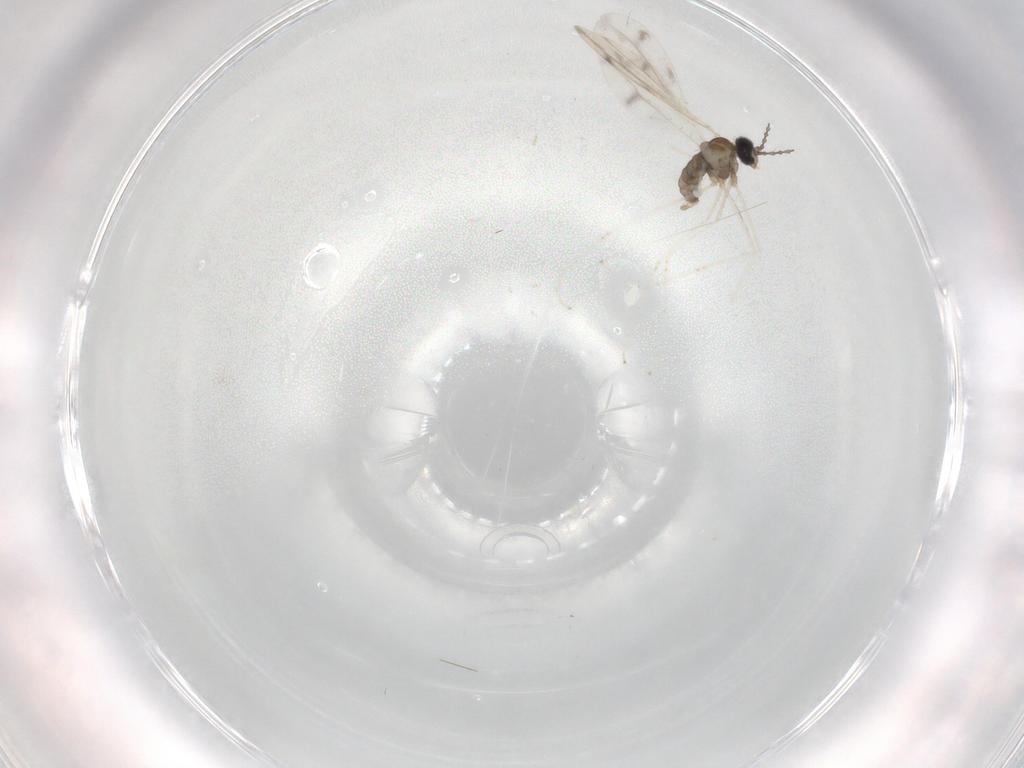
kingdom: Animalia
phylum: Arthropoda
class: Insecta
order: Diptera
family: Cecidomyiidae
